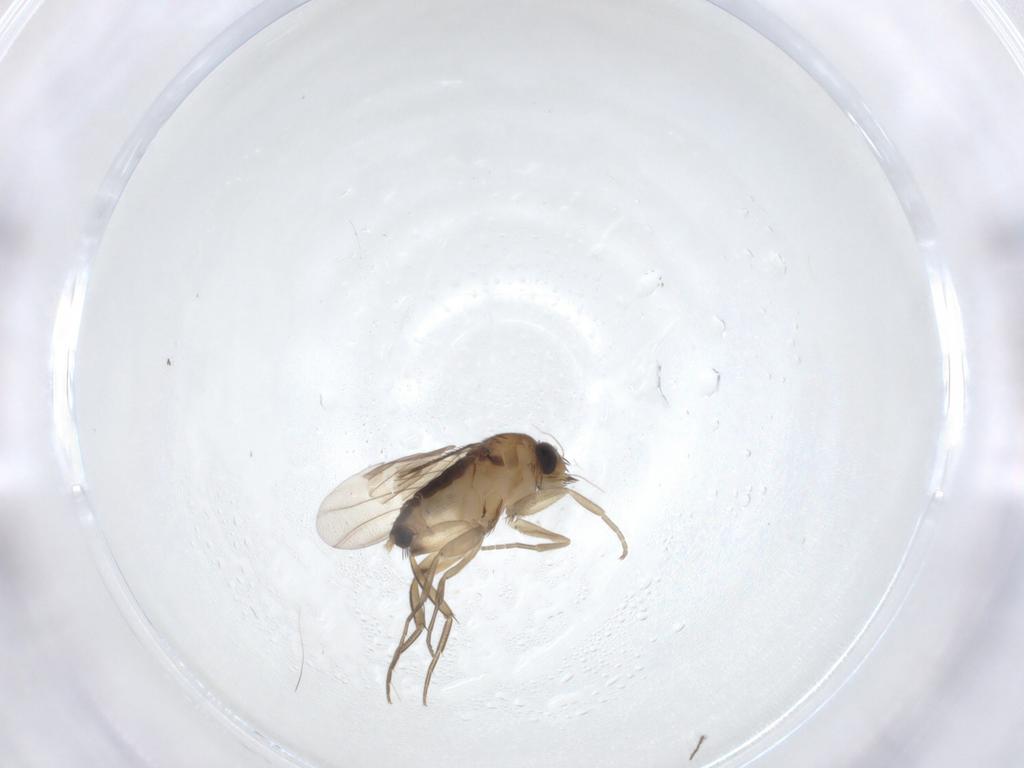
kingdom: Animalia
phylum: Arthropoda
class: Insecta
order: Diptera
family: Phoridae
